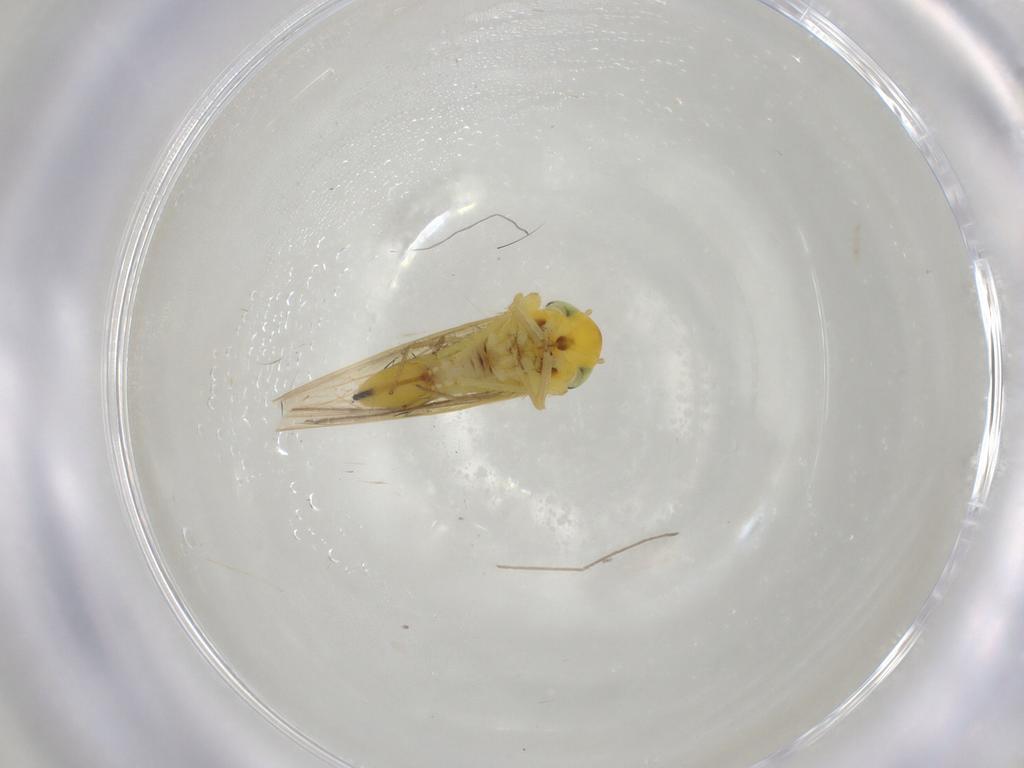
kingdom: Animalia
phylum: Arthropoda
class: Insecta
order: Hemiptera
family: Cicadellidae
